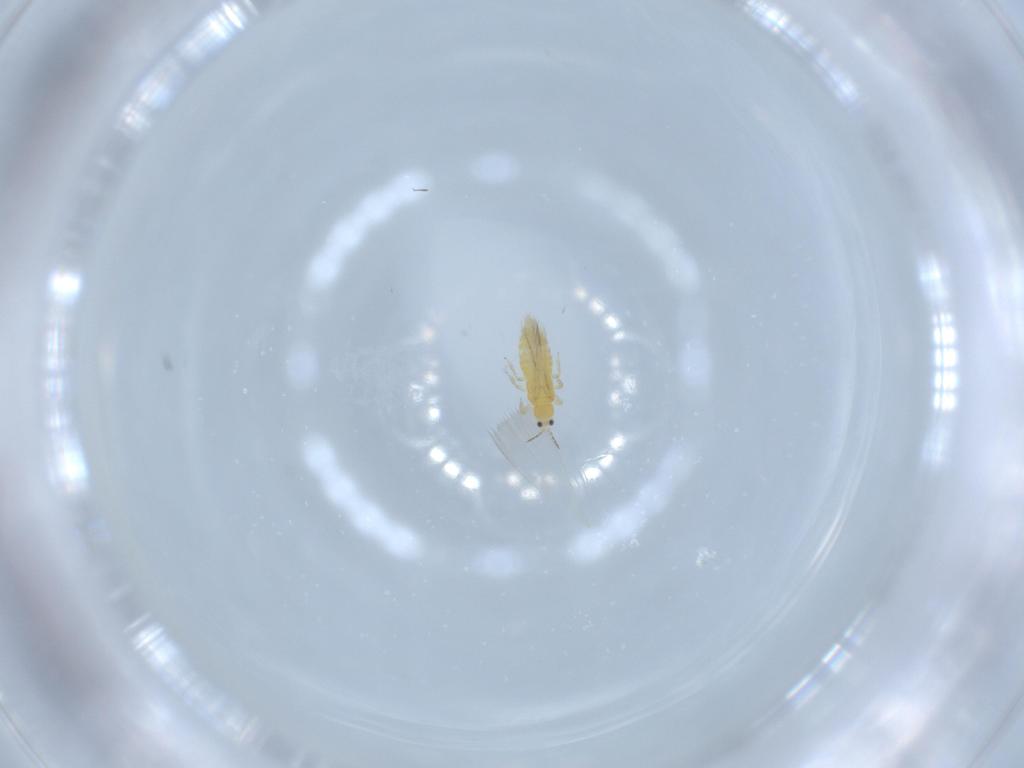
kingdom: Animalia
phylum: Arthropoda
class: Insecta
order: Thysanoptera
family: Thripidae
